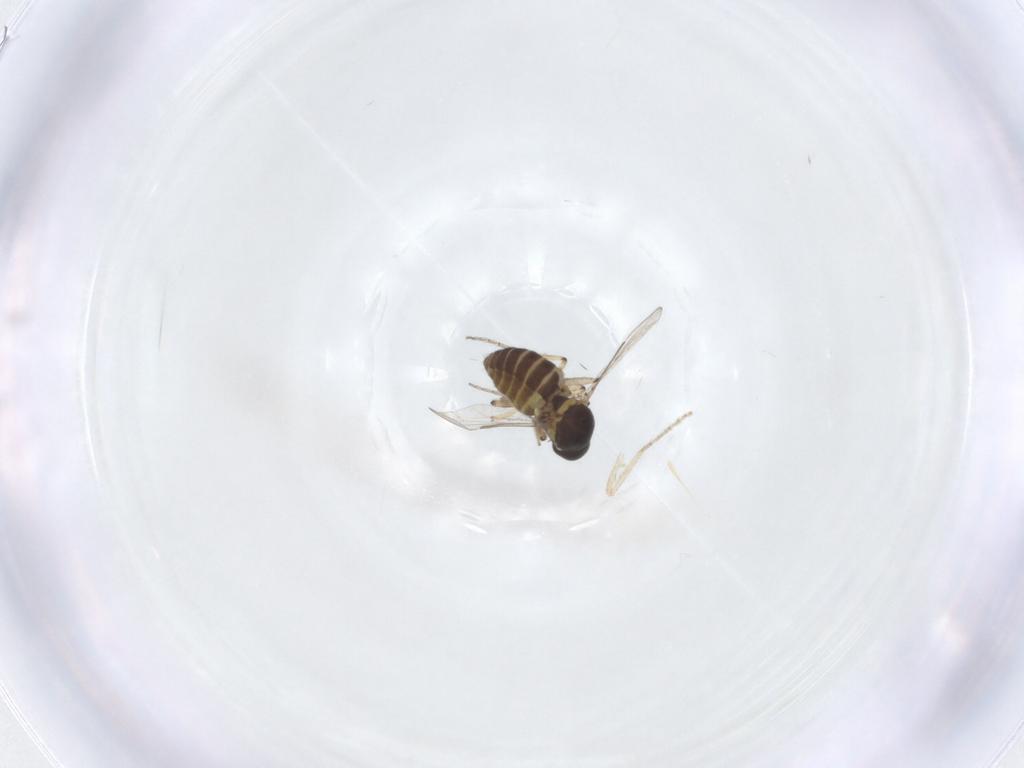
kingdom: Animalia
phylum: Arthropoda
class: Insecta
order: Diptera
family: Ceratopogonidae
